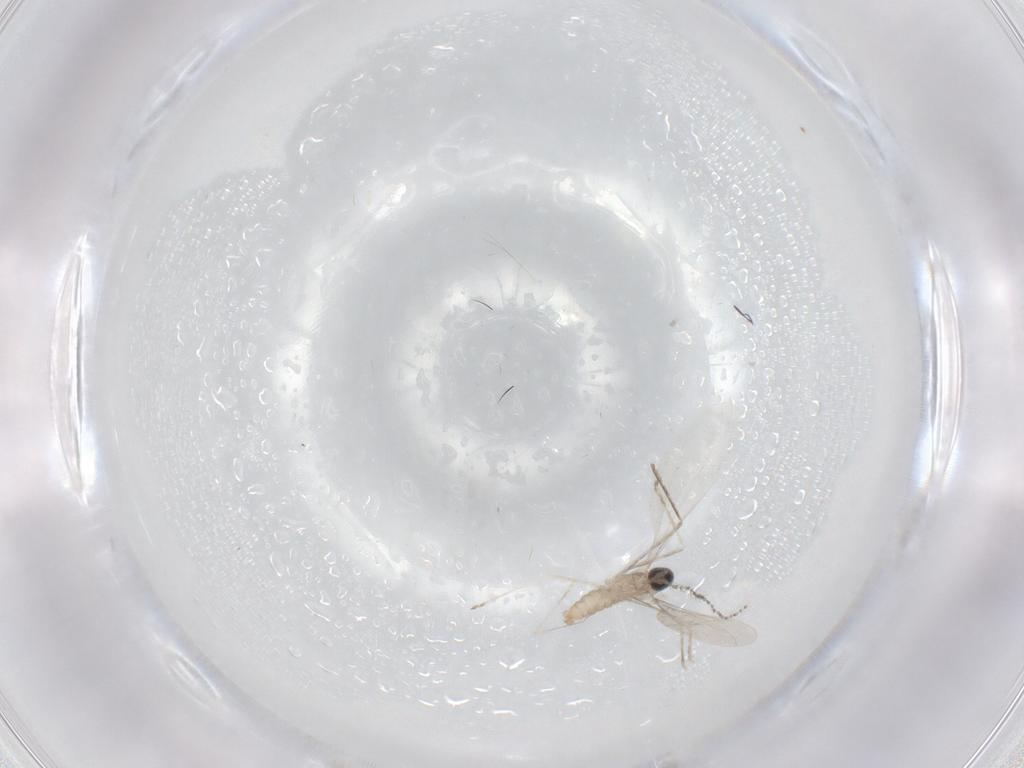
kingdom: Animalia
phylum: Arthropoda
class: Insecta
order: Diptera
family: Cecidomyiidae
